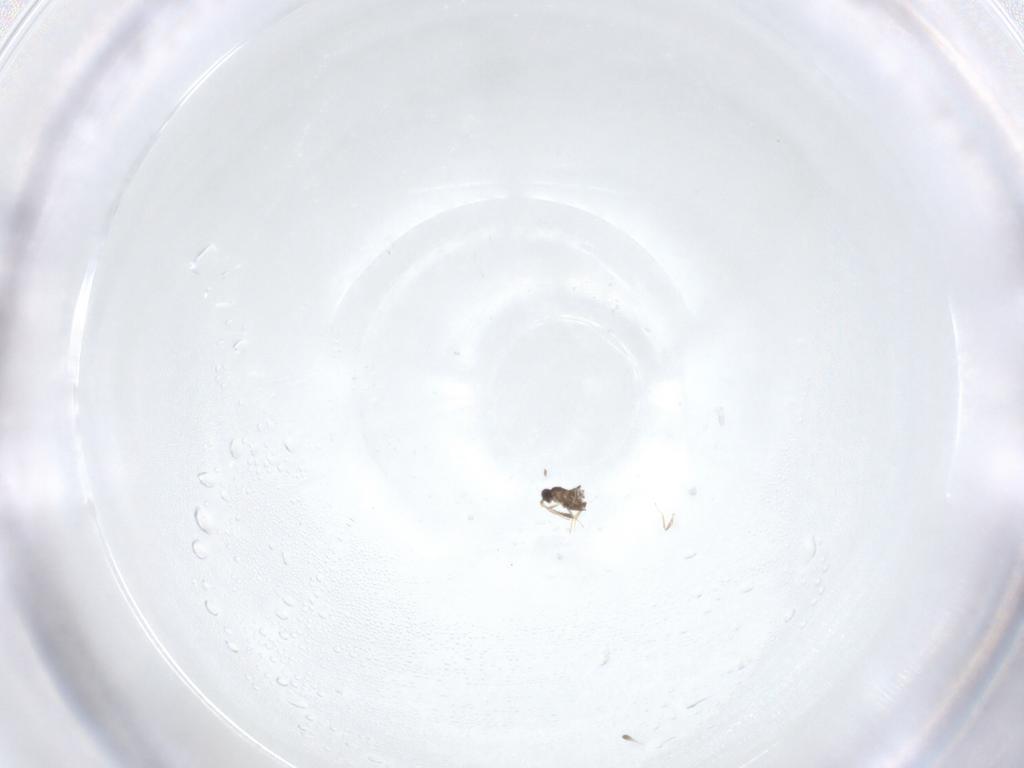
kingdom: Animalia
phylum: Arthropoda
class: Insecta
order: Hymenoptera
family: Mymaridae
